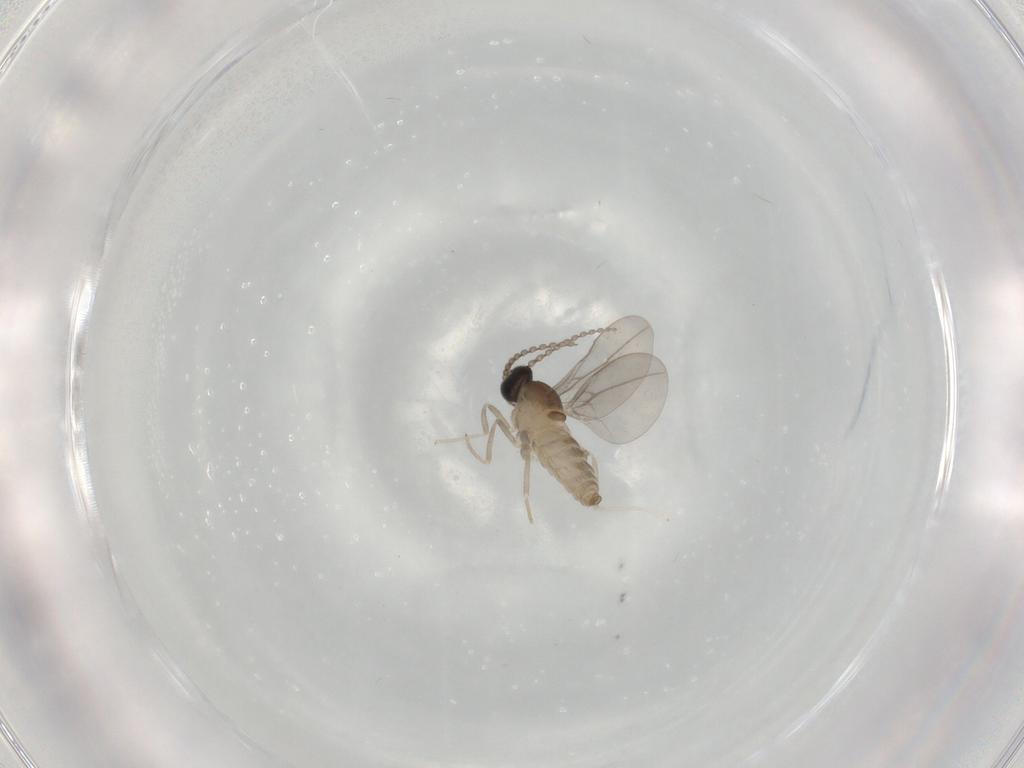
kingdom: Animalia
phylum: Arthropoda
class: Insecta
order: Diptera
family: Cecidomyiidae
